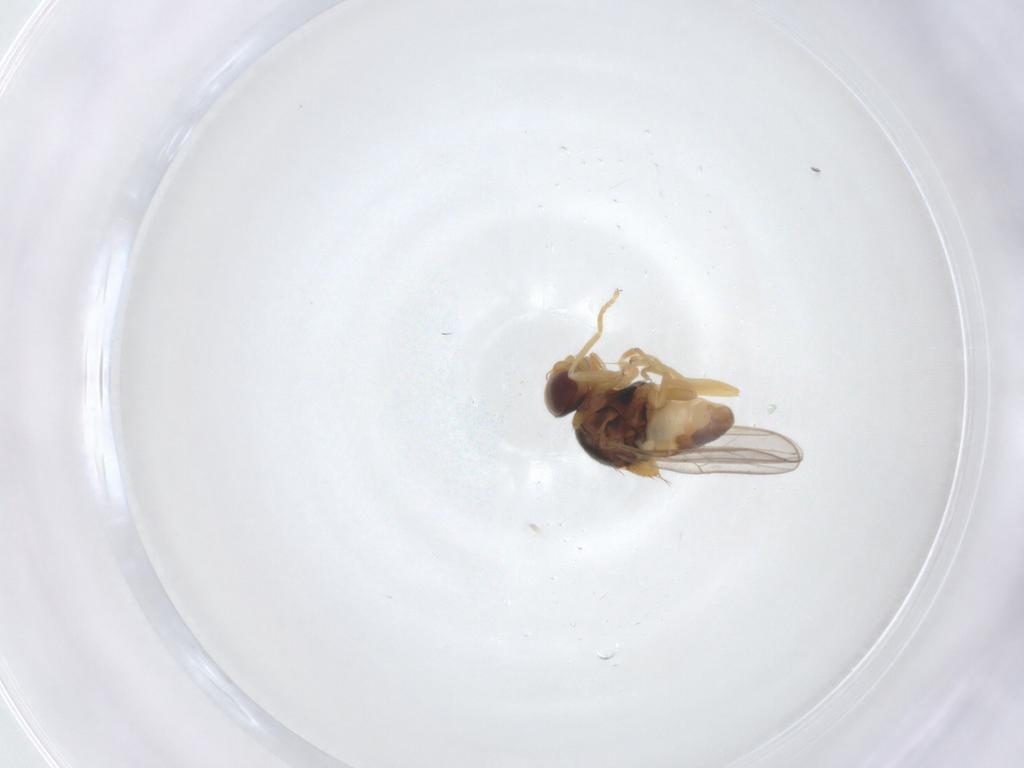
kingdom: Animalia
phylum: Arthropoda
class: Insecta
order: Diptera
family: Chloropidae
